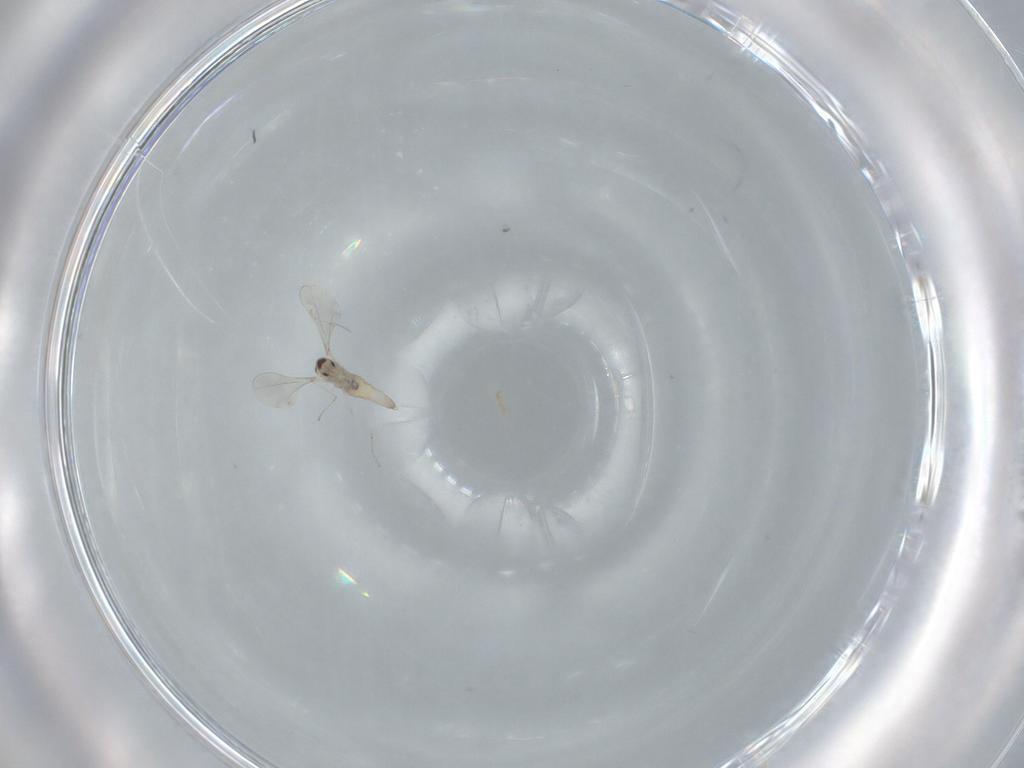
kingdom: Animalia
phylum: Arthropoda
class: Insecta
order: Diptera
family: Cecidomyiidae
